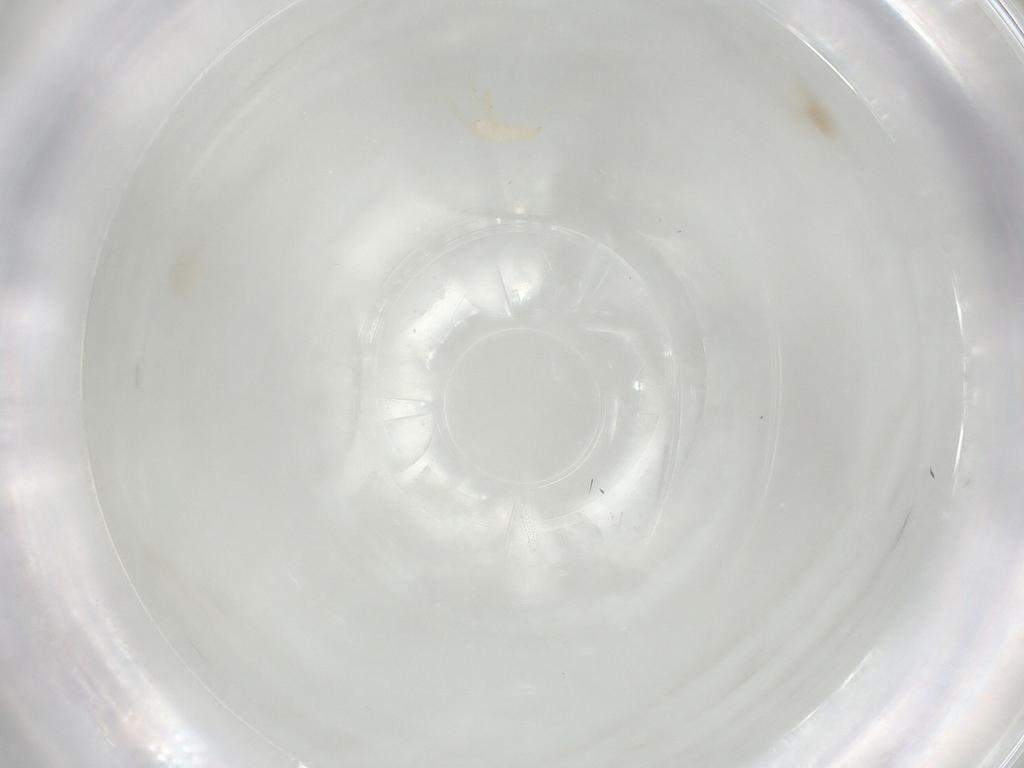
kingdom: Animalia
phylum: Arthropoda
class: Arachnida
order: Trombidiformes
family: Erythraeidae
